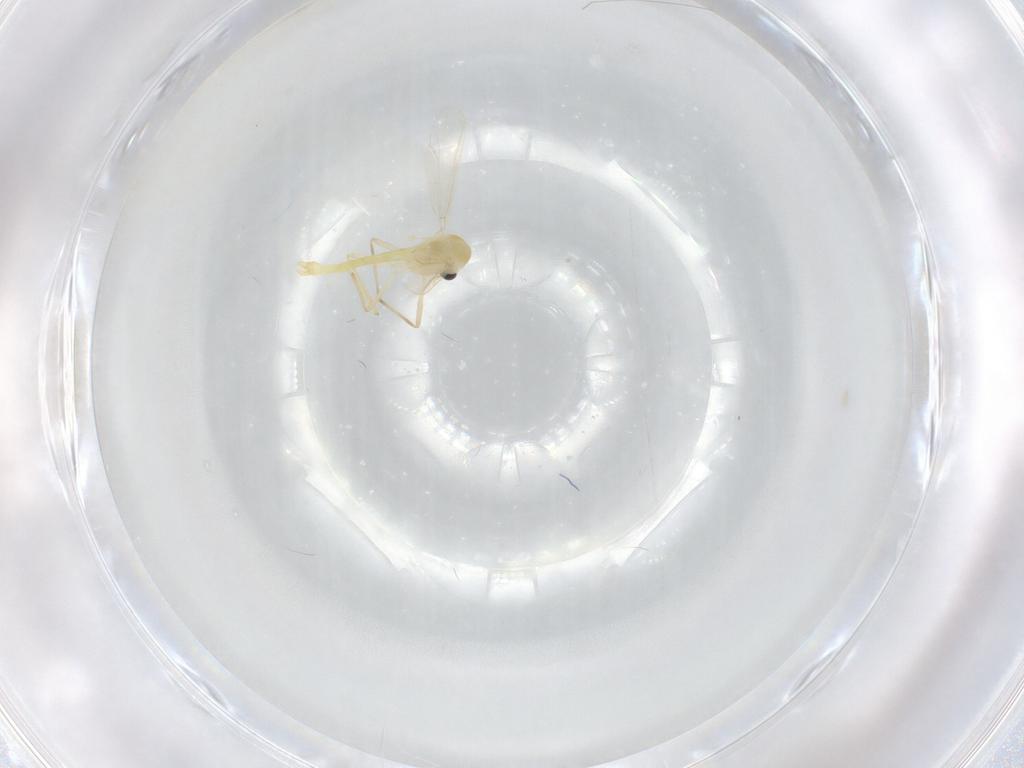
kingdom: Animalia
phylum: Arthropoda
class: Insecta
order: Diptera
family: Chironomidae
